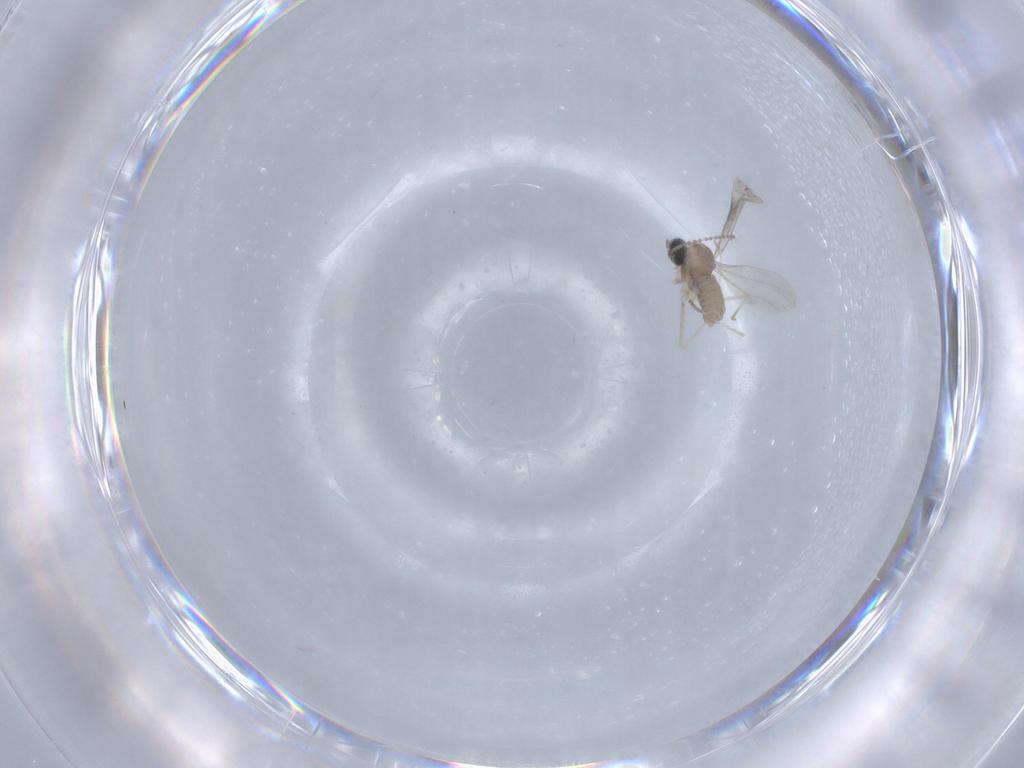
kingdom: Animalia
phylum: Arthropoda
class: Insecta
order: Diptera
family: Cecidomyiidae
